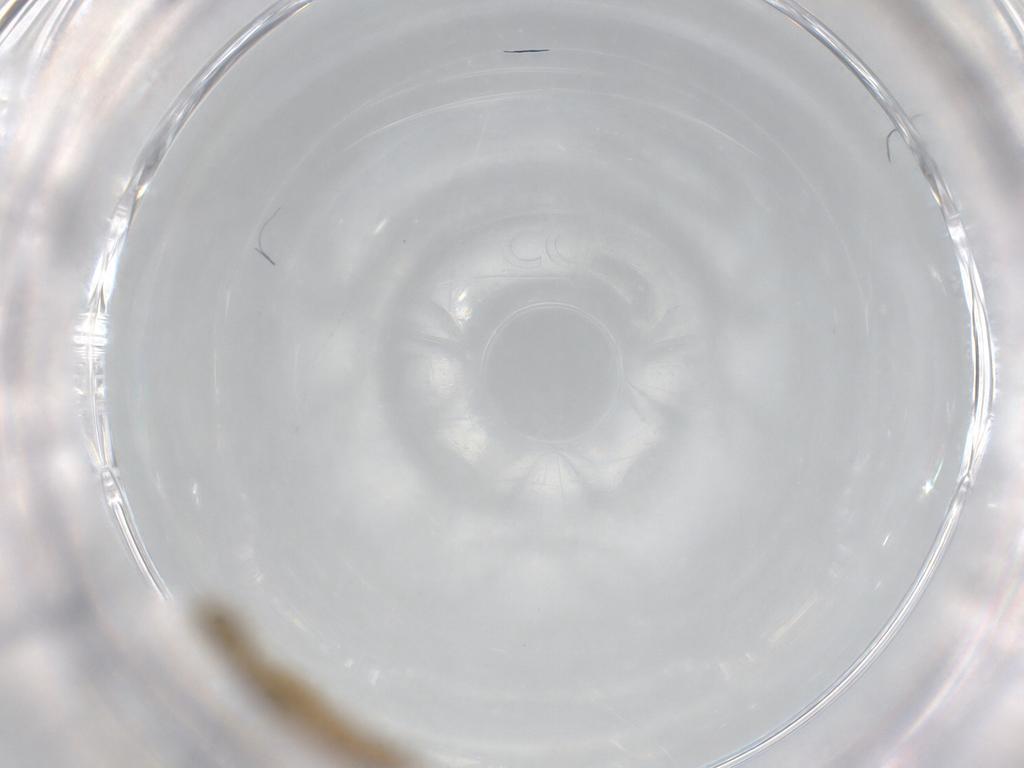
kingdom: Animalia
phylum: Arthropoda
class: Insecta
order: Diptera
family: Chironomidae
